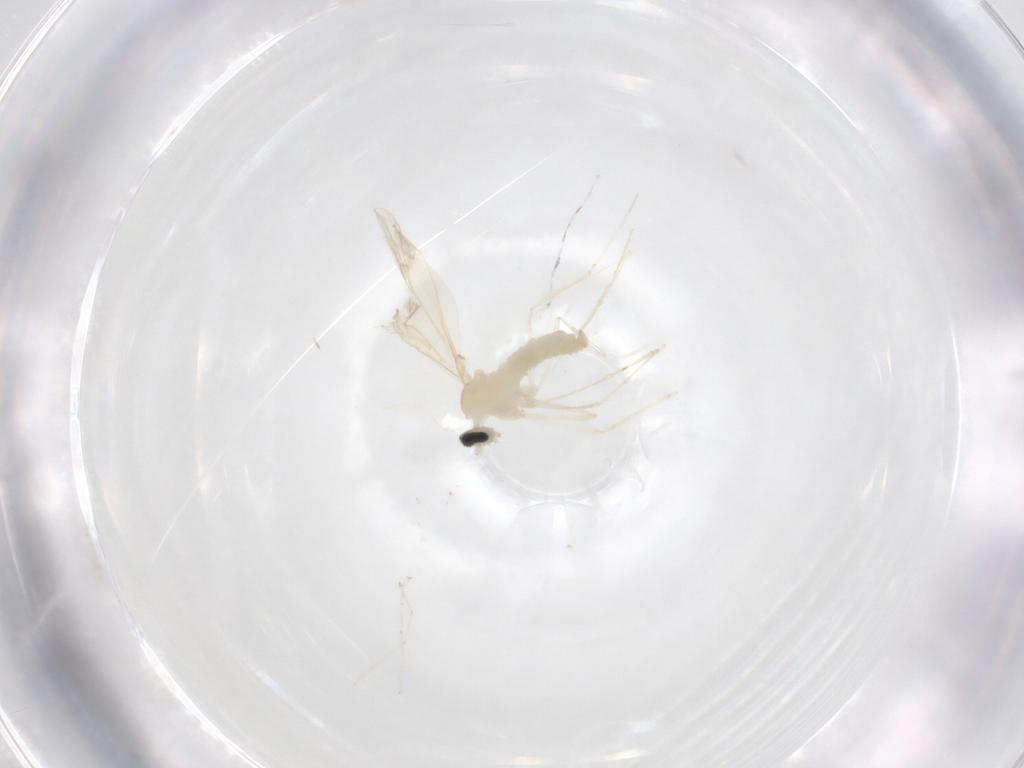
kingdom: Animalia
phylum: Arthropoda
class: Insecta
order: Diptera
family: Cecidomyiidae
